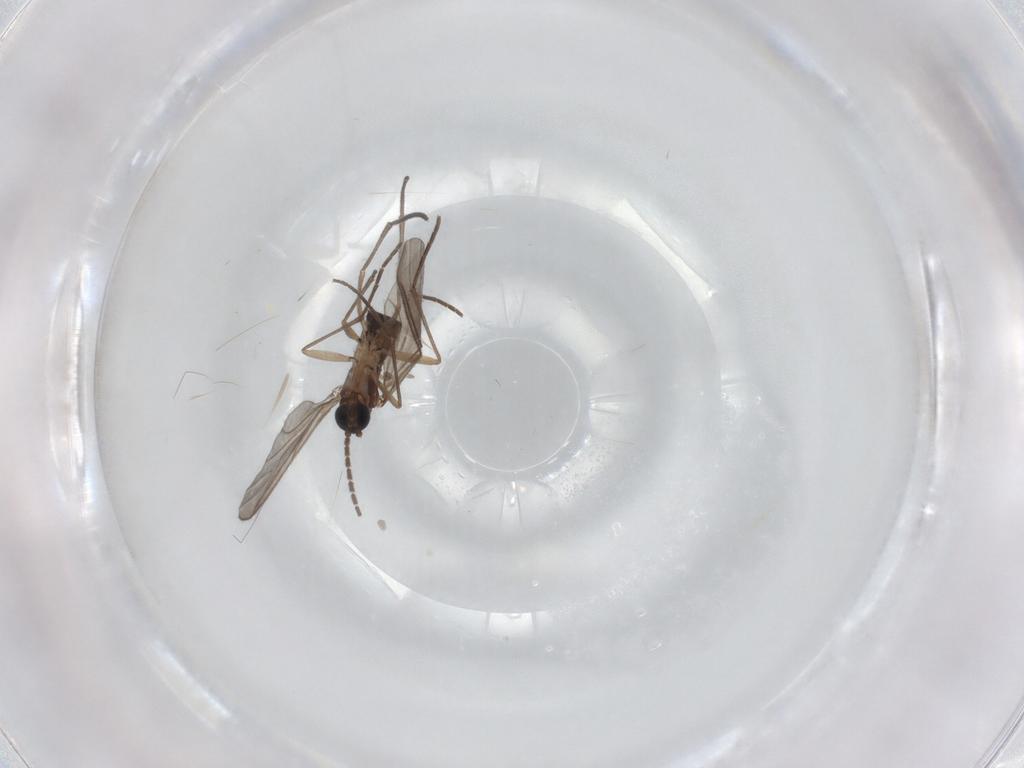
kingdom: Animalia
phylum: Arthropoda
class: Insecta
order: Diptera
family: Sciaridae
